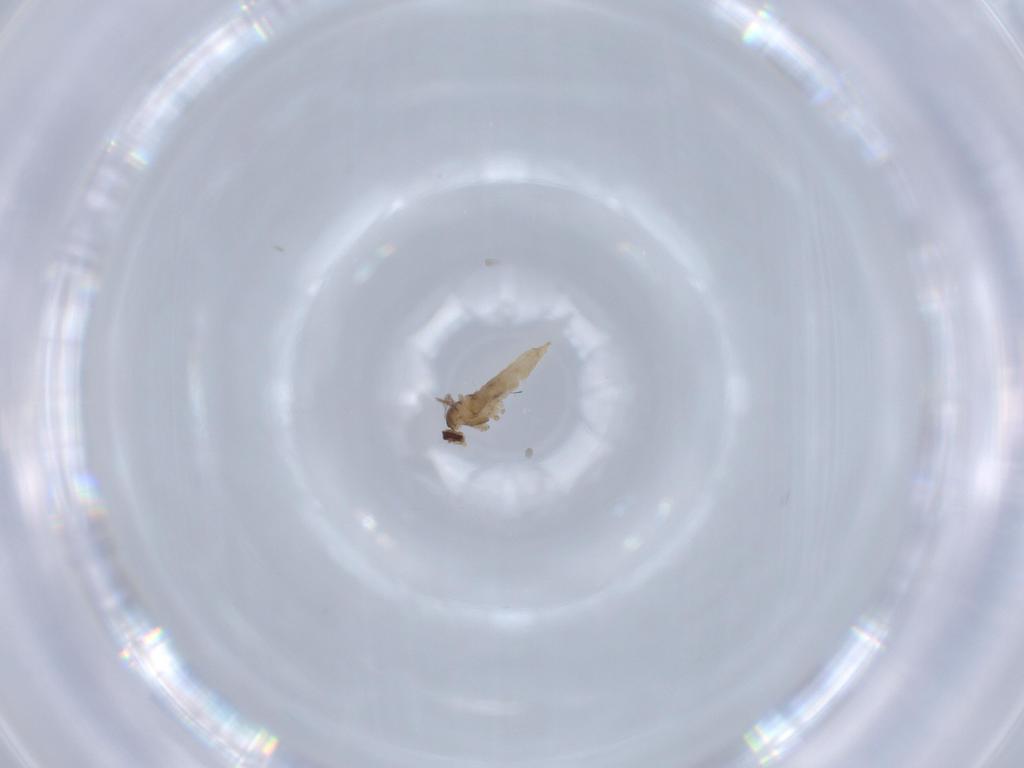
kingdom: Animalia
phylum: Arthropoda
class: Insecta
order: Diptera
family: Cecidomyiidae
